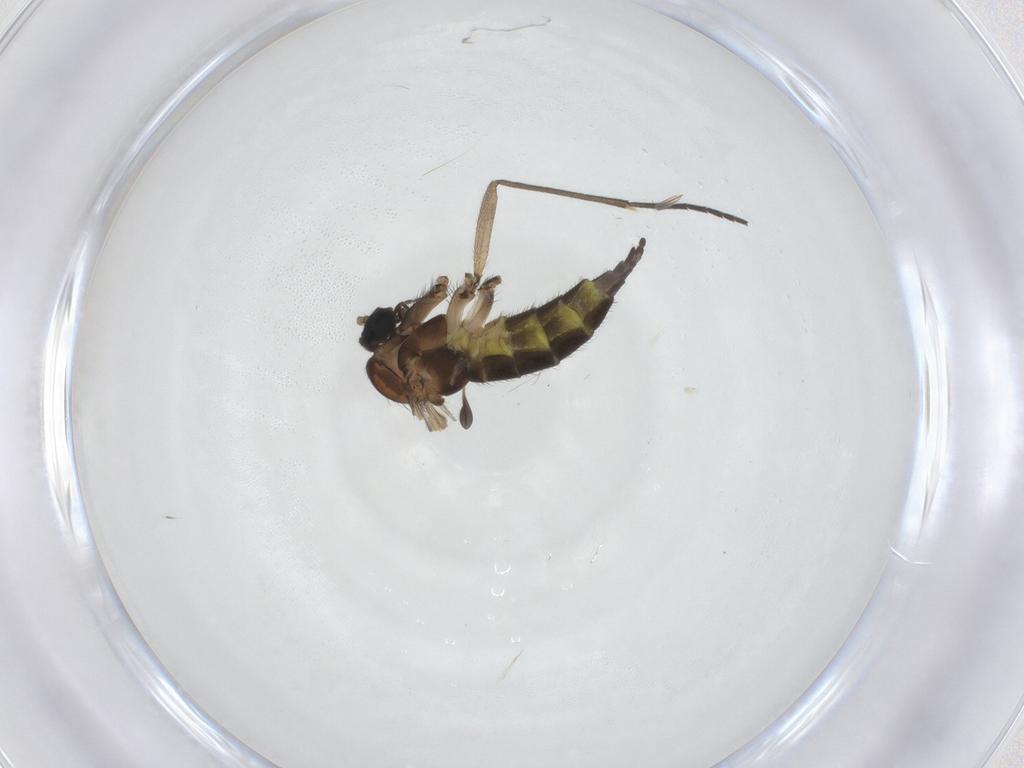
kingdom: Animalia
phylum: Arthropoda
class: Insecta
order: Diptera
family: Sciaridae
